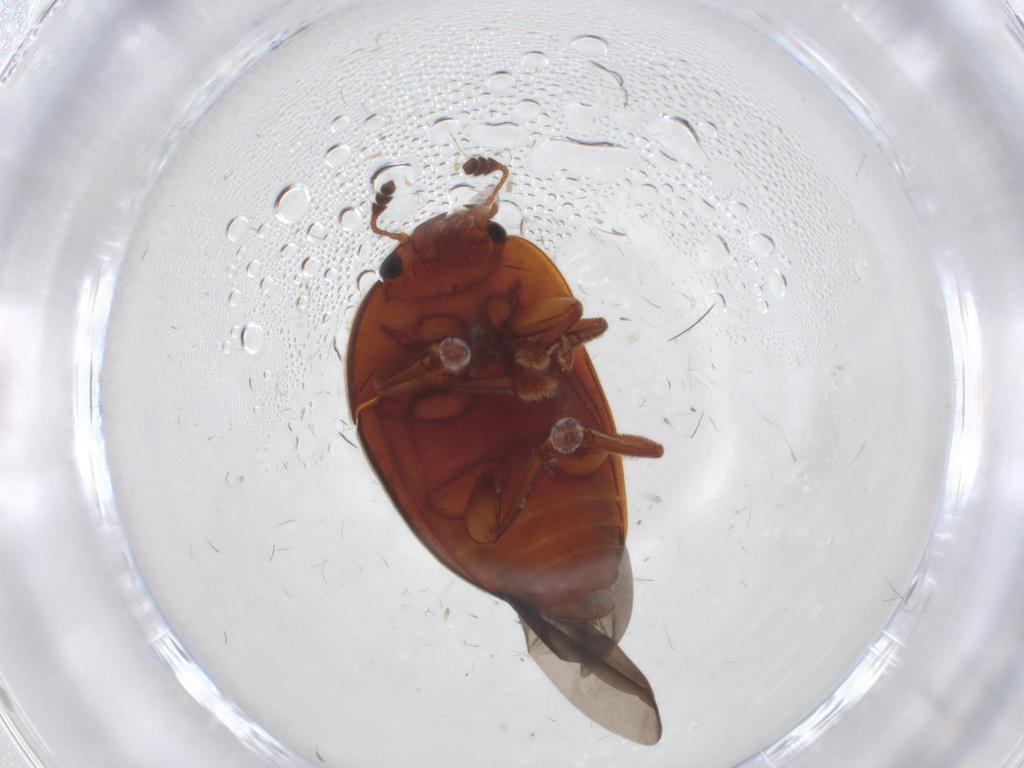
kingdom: Animalia
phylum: Arthropoda
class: Insecta
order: Coleoptera
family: Nitidulidae
